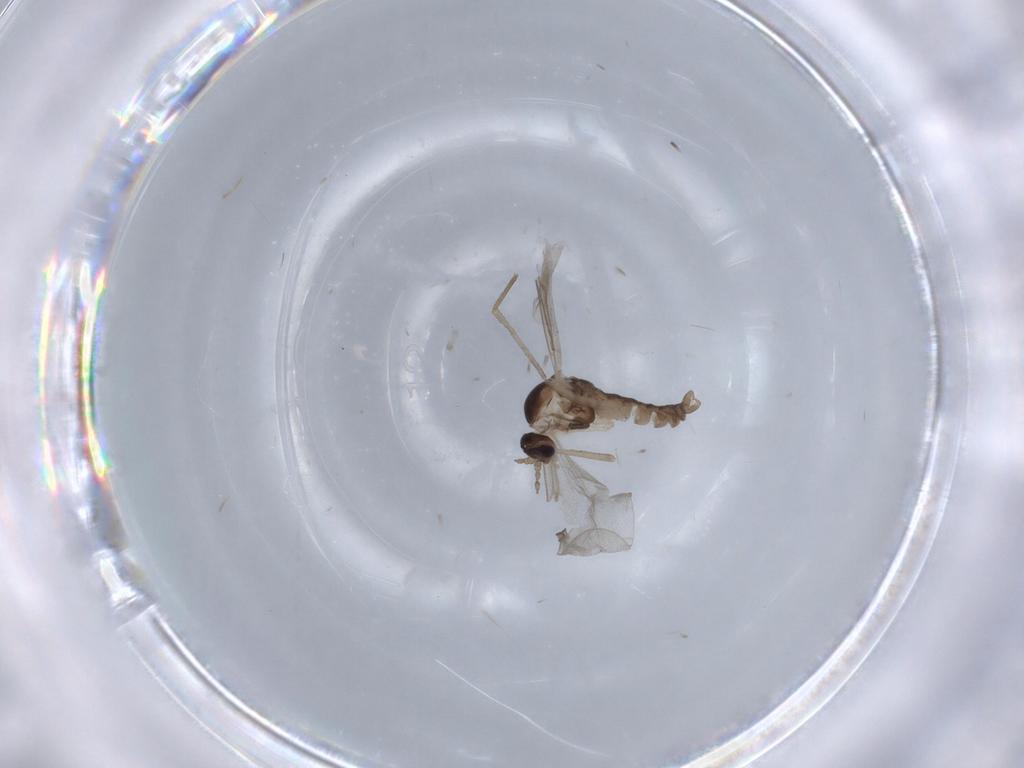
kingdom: Animalia
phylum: Arthropoda
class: Insecta
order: Diptera
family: Cecidomyiidae
